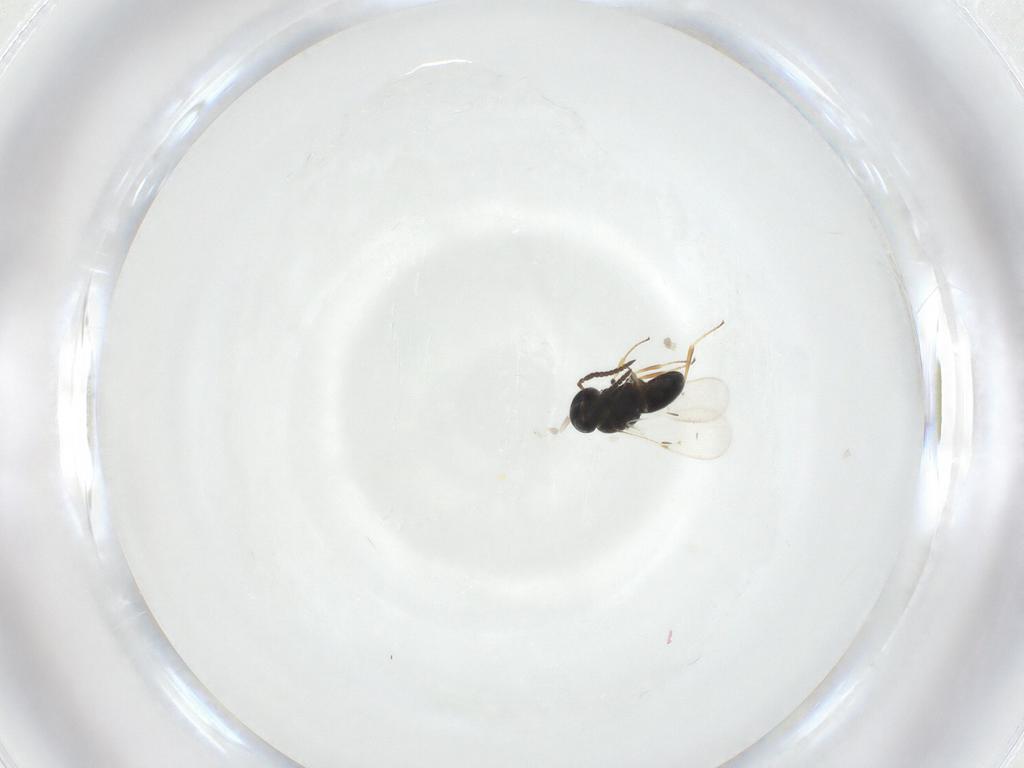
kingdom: Animalia
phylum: Arthropoda
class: Insecta
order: Hymenoptera
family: Scelionidae
